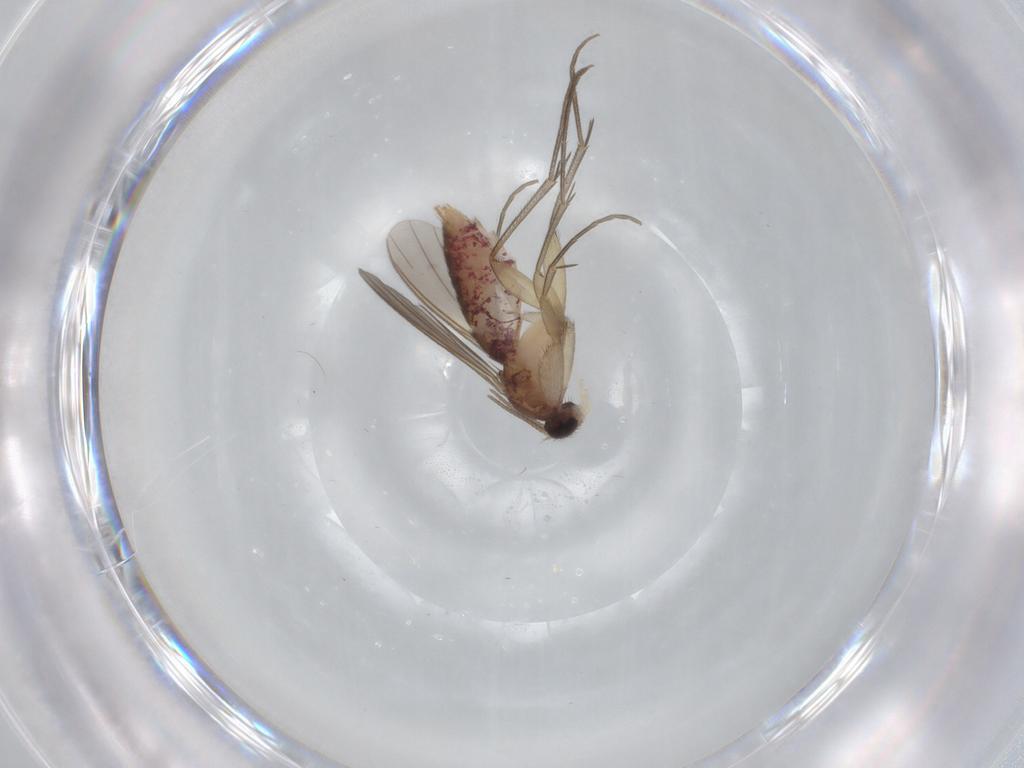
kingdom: Animalia
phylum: Arthropoda
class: Insecta
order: Diptera
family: Mycetophilidae
